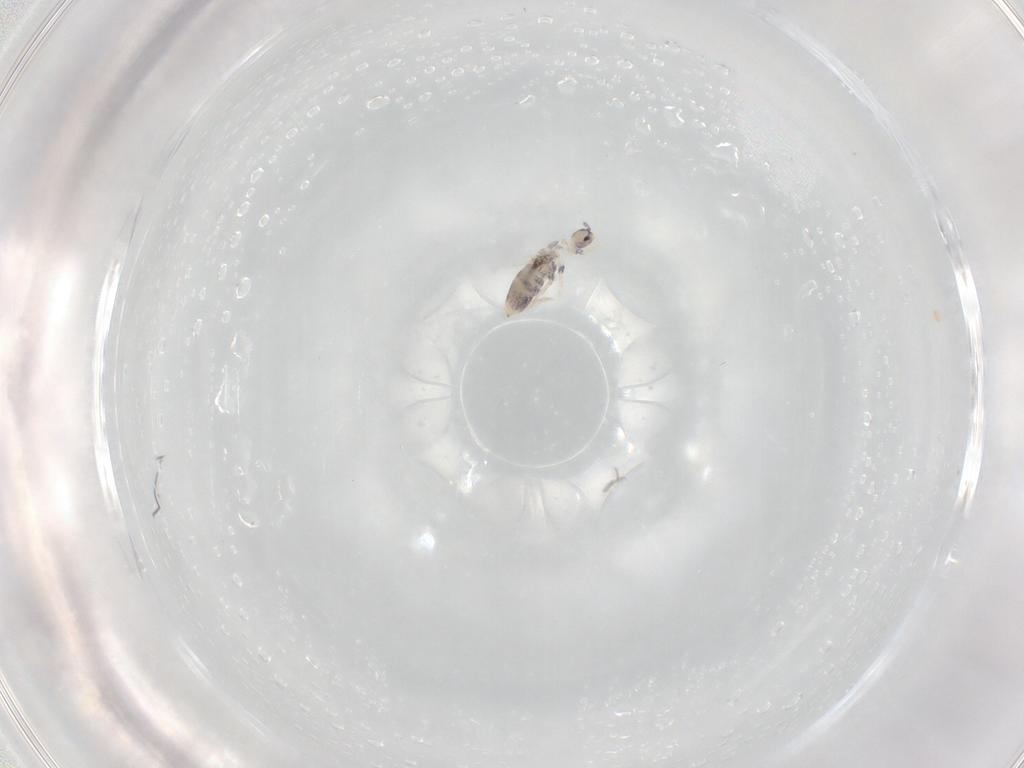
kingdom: Animalia
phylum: Arthropoda
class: Collembola
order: Entomobryomorpha
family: Entomobryidae
